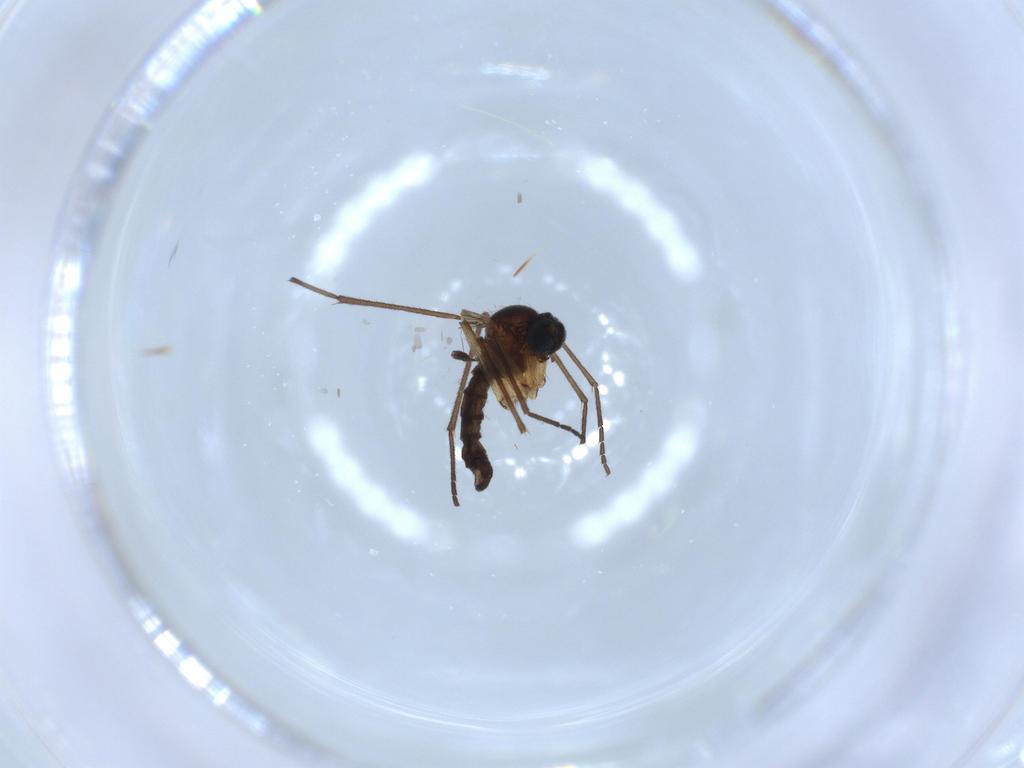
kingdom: Animalia
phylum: Arthropoda
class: Insecta
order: Diptera
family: Sciaridae
